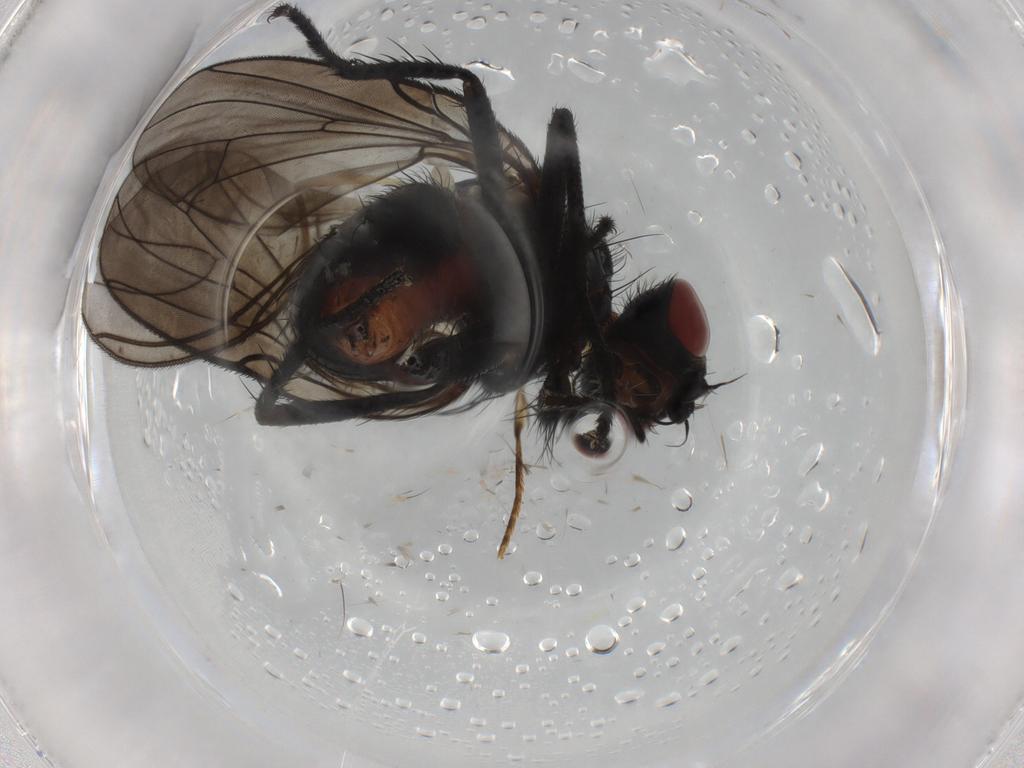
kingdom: Animalia
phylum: Arthropoda
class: Insecta
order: Diptera
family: Anthomyiidae
